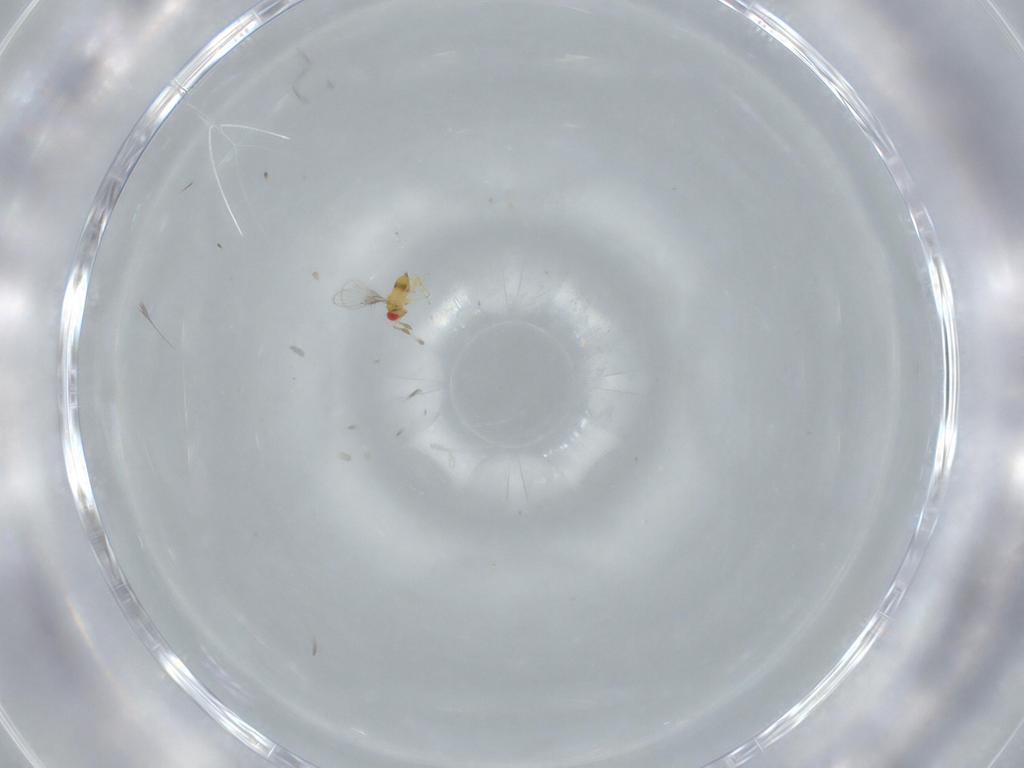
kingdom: Animalia
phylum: Arthropoda
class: Insecta
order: Hymenoptera
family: Trichogrammatidae
